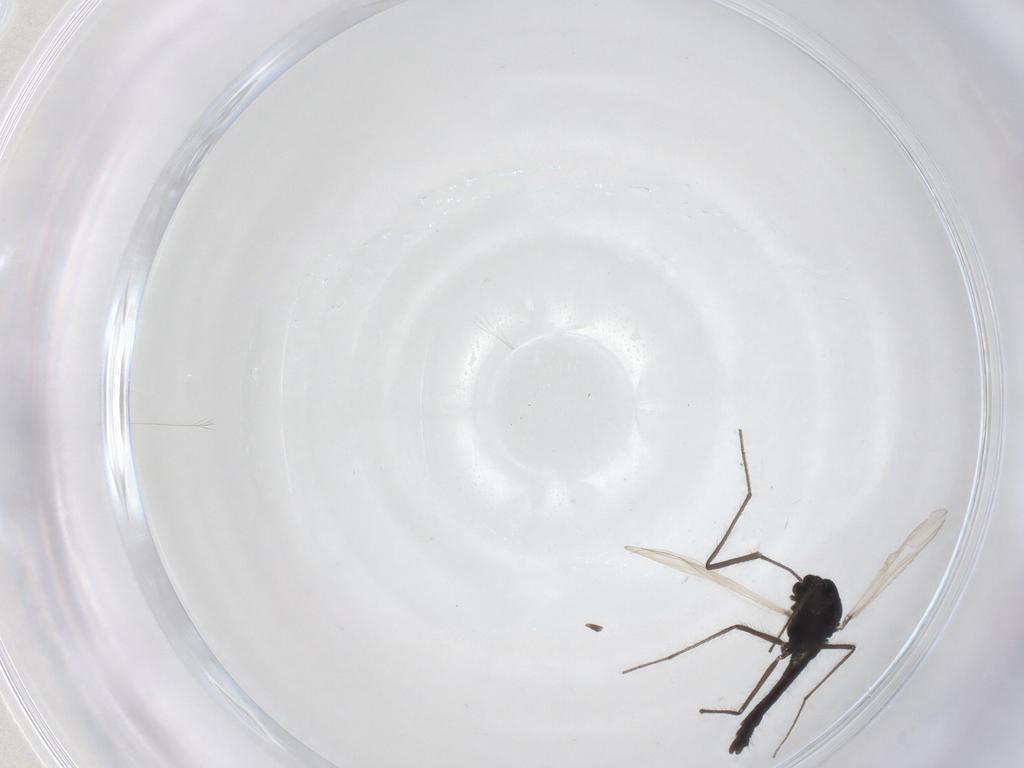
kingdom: Animalia
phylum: Arthropoda
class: Insecta
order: Diptera
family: Chironomidae
